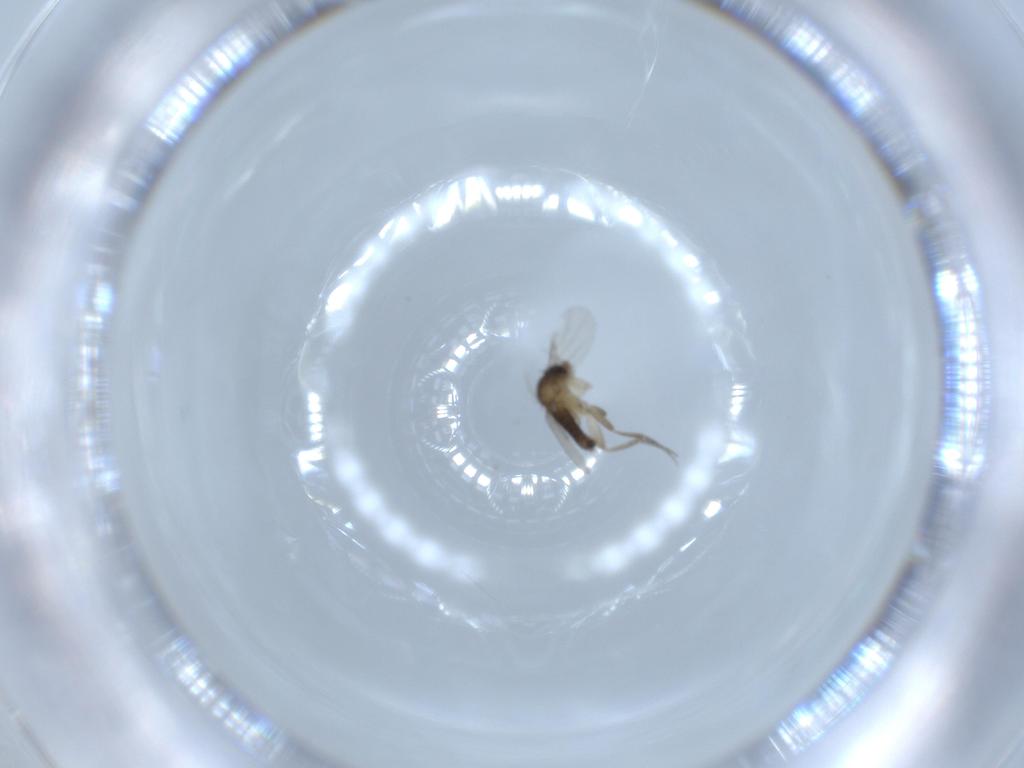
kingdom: Animalia
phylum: Arthropoda
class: Insecta
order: Diptera
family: Phoridae
